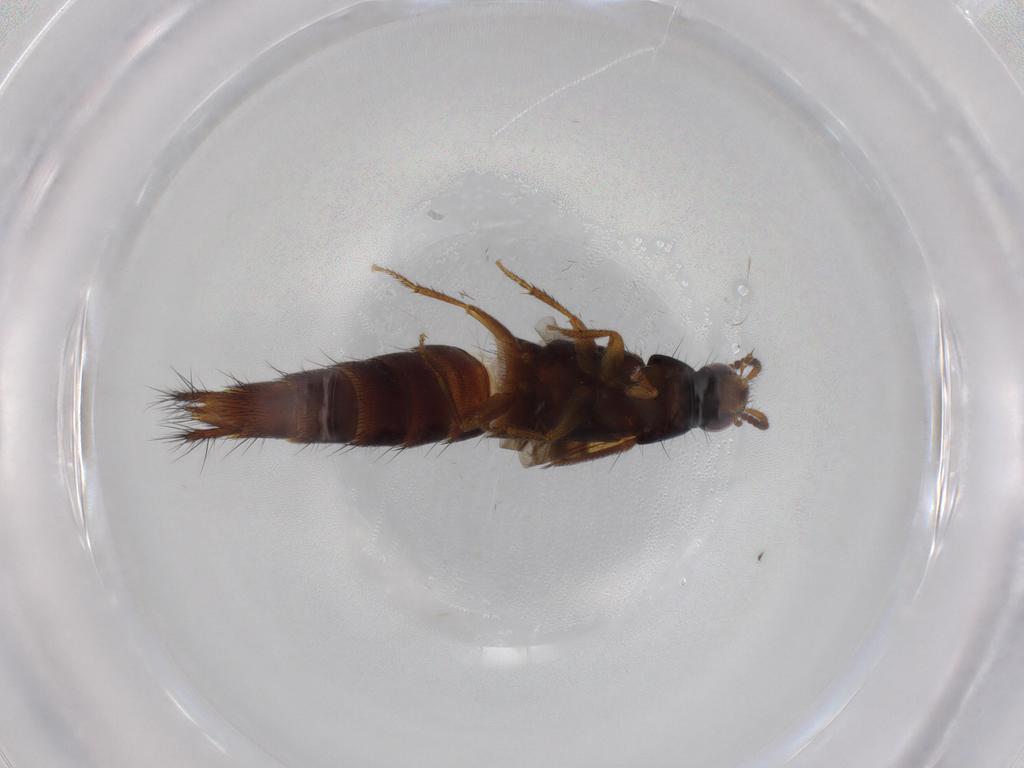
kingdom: Animalia
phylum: Arthropoda
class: Insecta
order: Coleoptera
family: Staphylinidae
